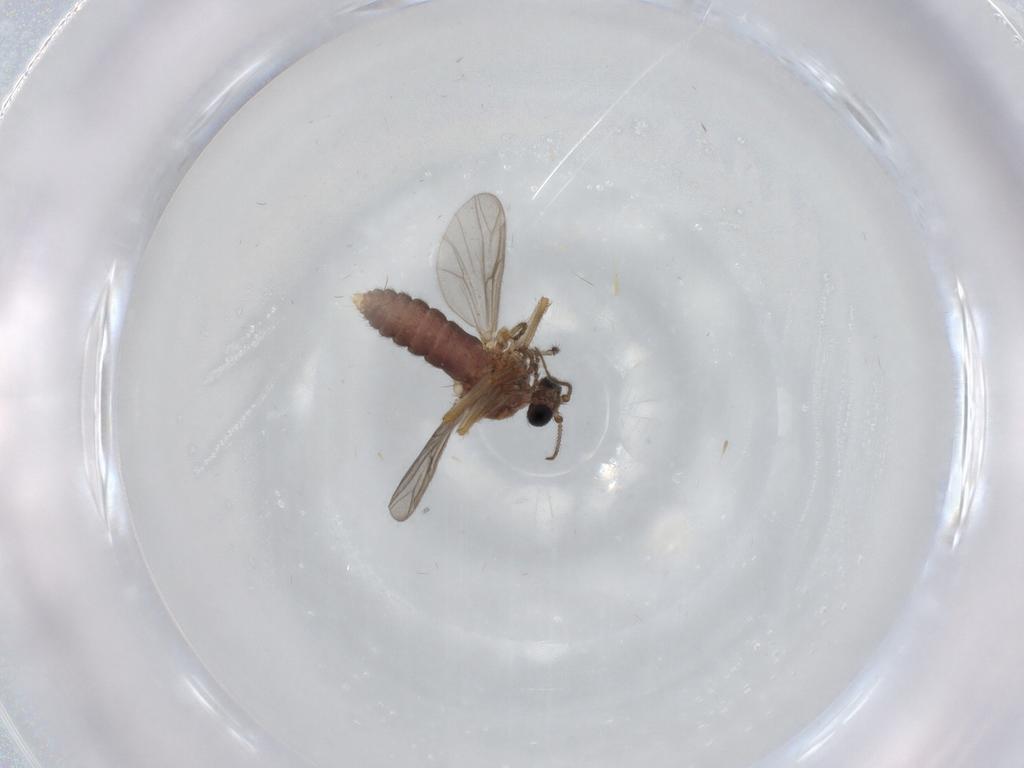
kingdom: Animalia
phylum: Arthropoda
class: Insecta
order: Diptera
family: Ceratopogonidae
